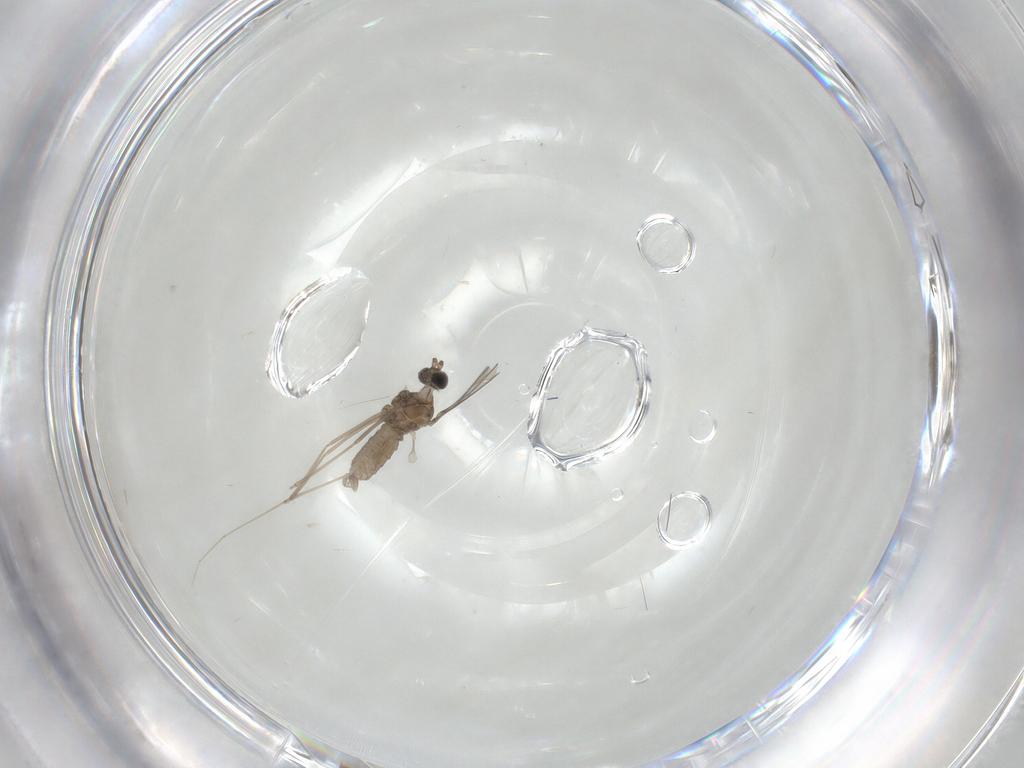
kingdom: Animalia
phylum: Arthropoda
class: Insecta
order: Diptera
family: Cecidomyiidae
